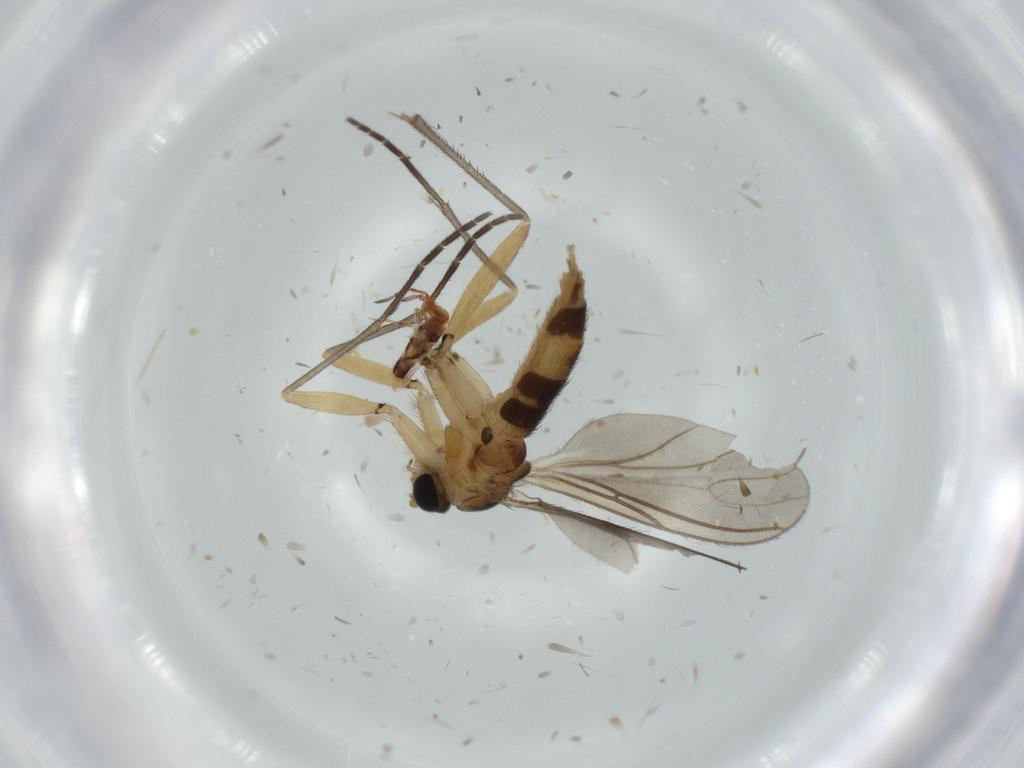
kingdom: Animalia
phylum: Arthropoda
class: Insecta
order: Diptera
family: Sciaridae
